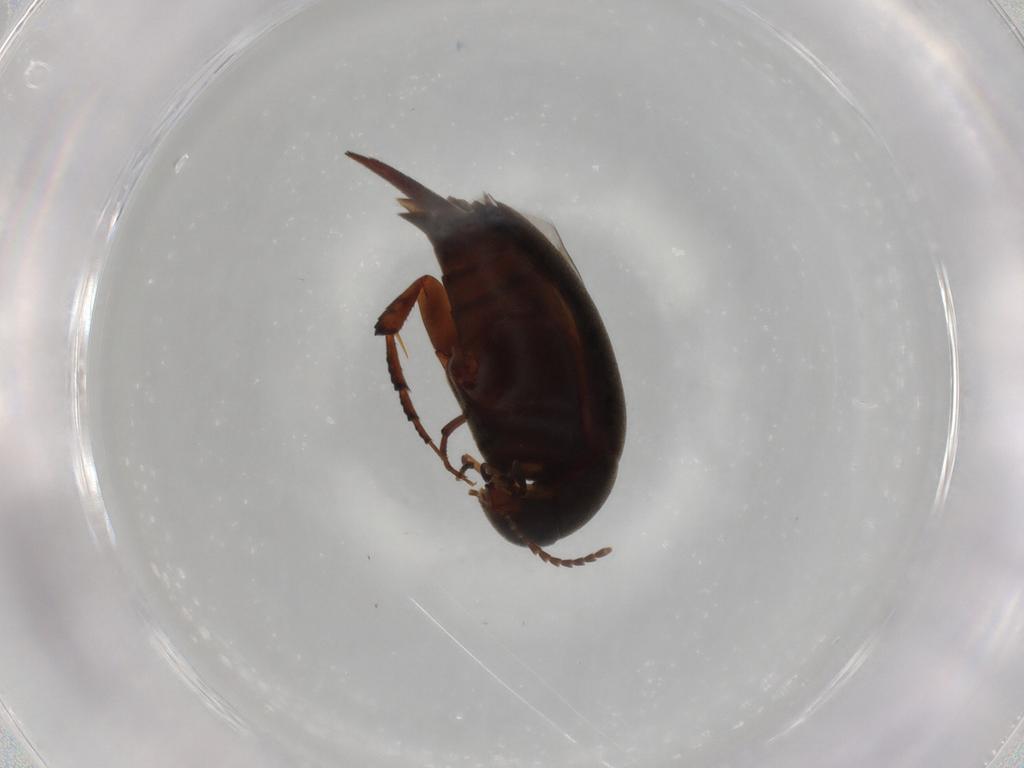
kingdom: Animalia
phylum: Arthropoda
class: Insecta
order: Coleoptera
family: Mordellidae
